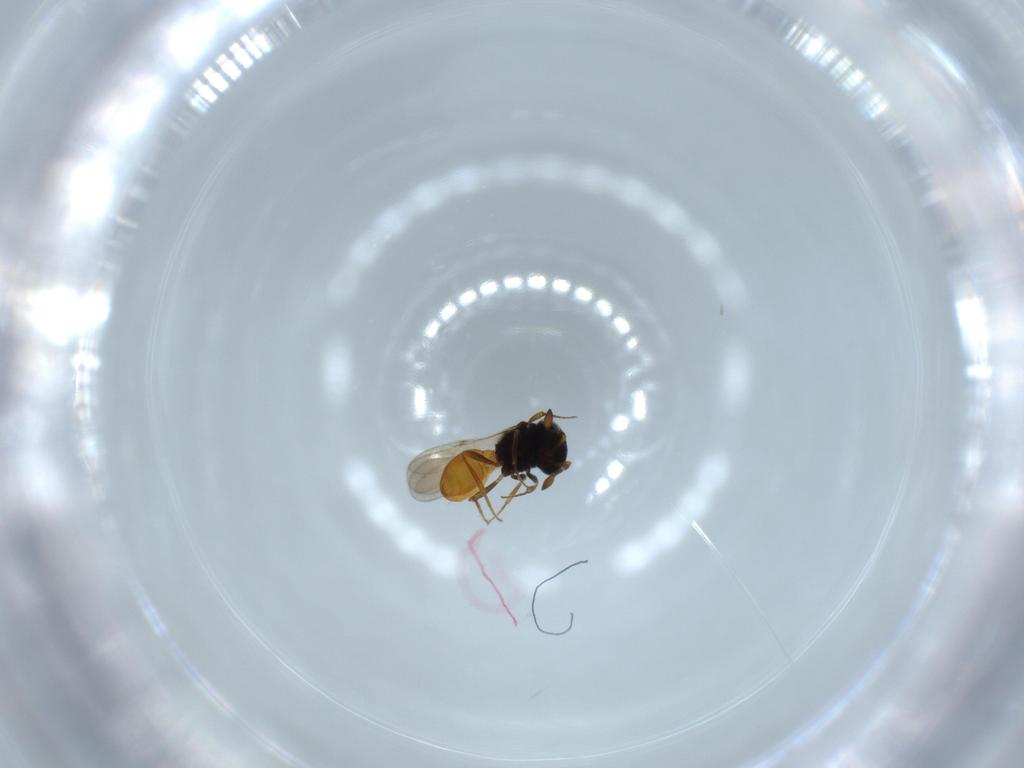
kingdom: Animalia
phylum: Arthropoda
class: Insecta
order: Hymenoptera
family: Scelionidae
